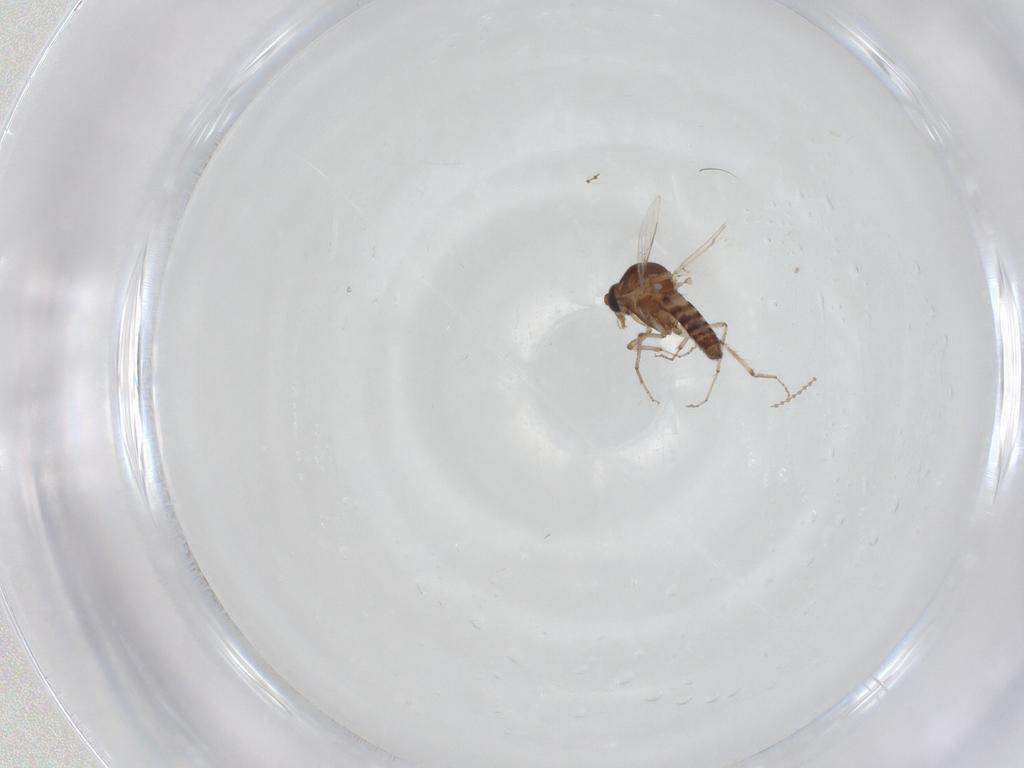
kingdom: Animalia
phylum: Arthropoda
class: Insecta
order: Diptera
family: Ceratopogonidae
